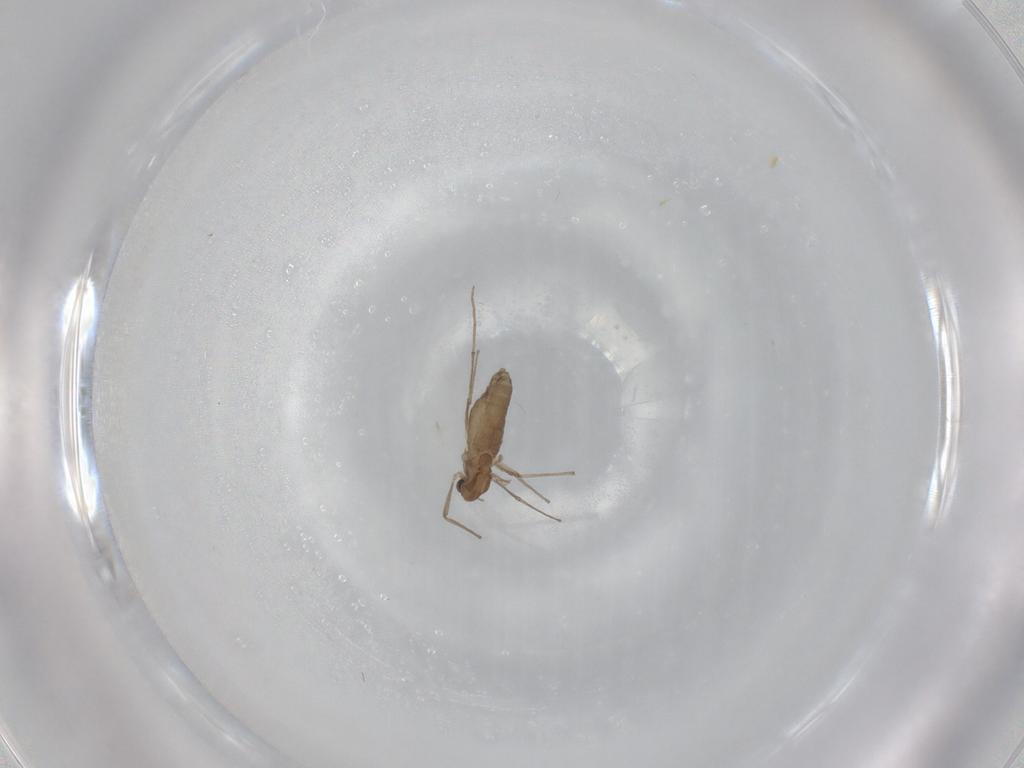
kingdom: Animalia
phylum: Arthropoda
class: Insecta
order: Diptera
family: Chironomidae
